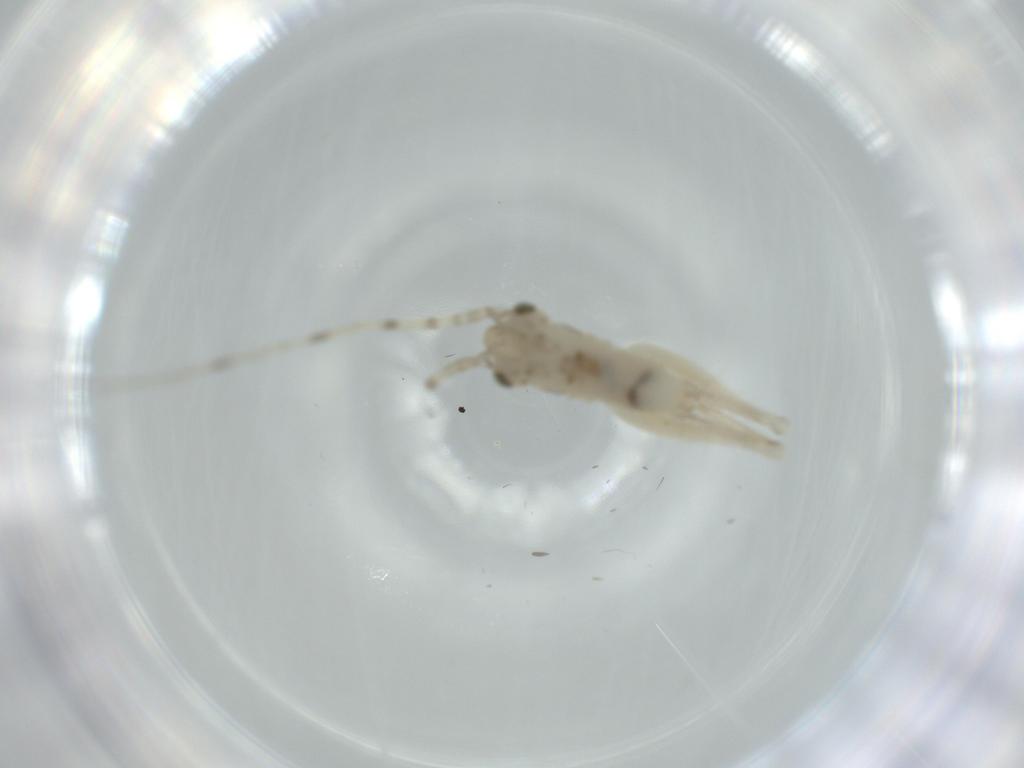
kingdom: Animalia
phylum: Arthropoda
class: Insecta
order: Orthoptera
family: Trigonidiidae
